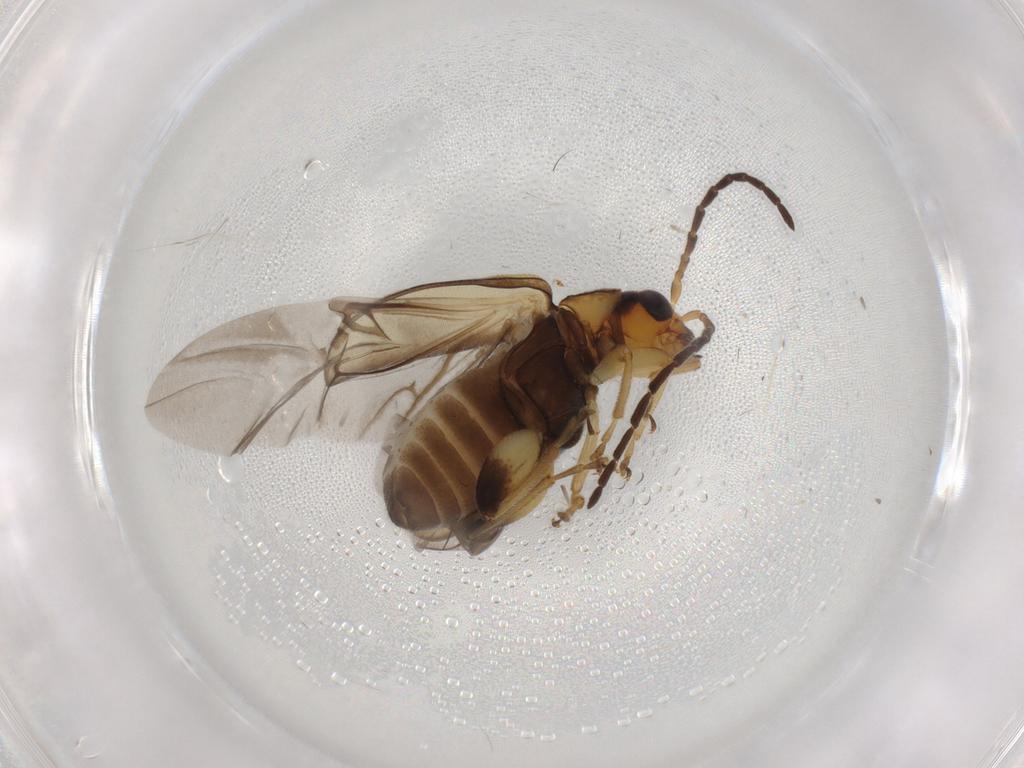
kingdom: Animalia
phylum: Arthropoda
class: Insecta
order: Coleoptera
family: Chrysomelidae
